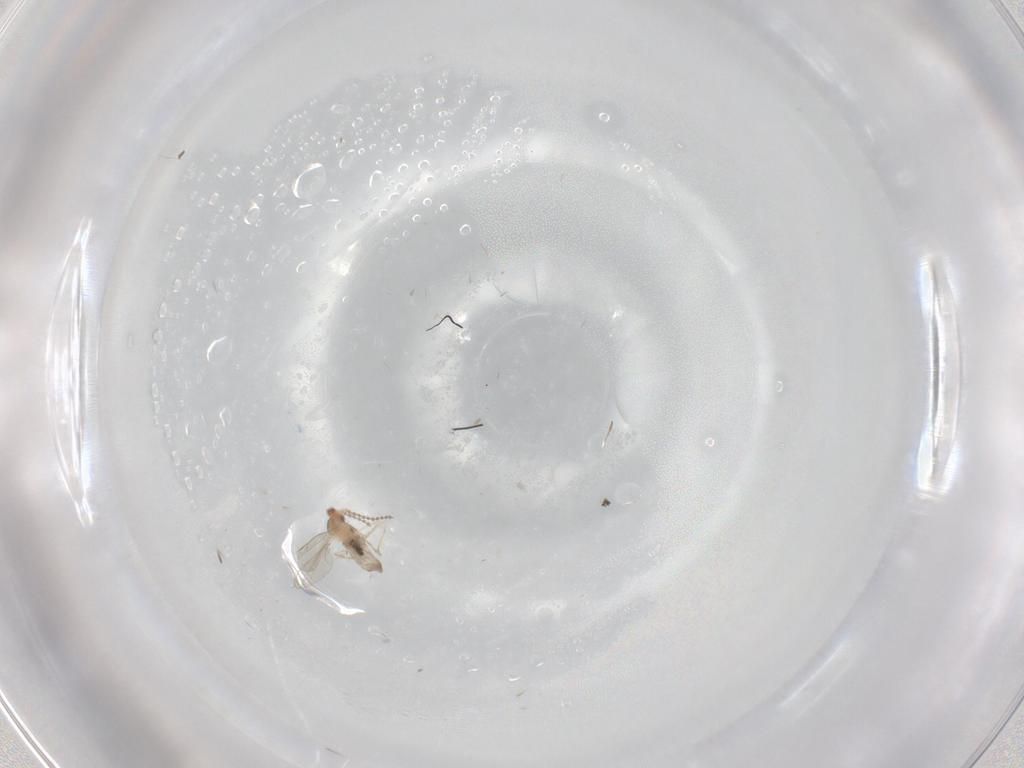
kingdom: Animalia
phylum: Arthropoda
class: Insecta
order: Diptera
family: Cecidomyiidae
